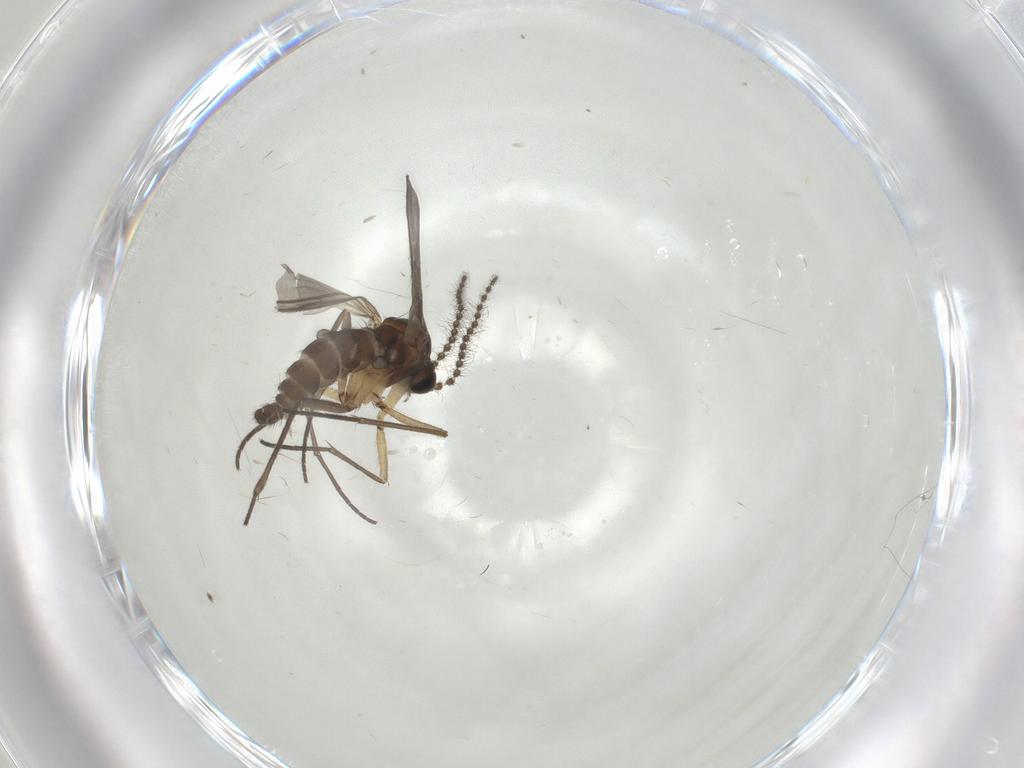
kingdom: Animalia
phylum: Arthropoda
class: Insecta
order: Diptera
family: Sciaridae
